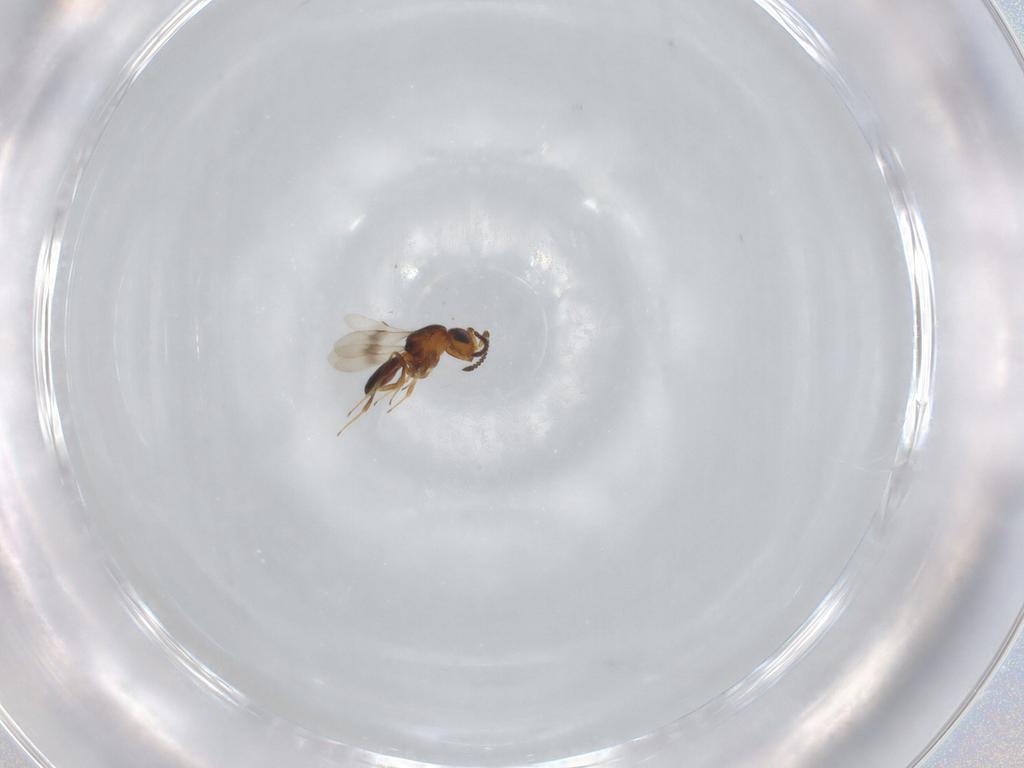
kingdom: Animalia
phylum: Arthropoda
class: Insecta
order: Hymenoptera
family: Scelionidae
